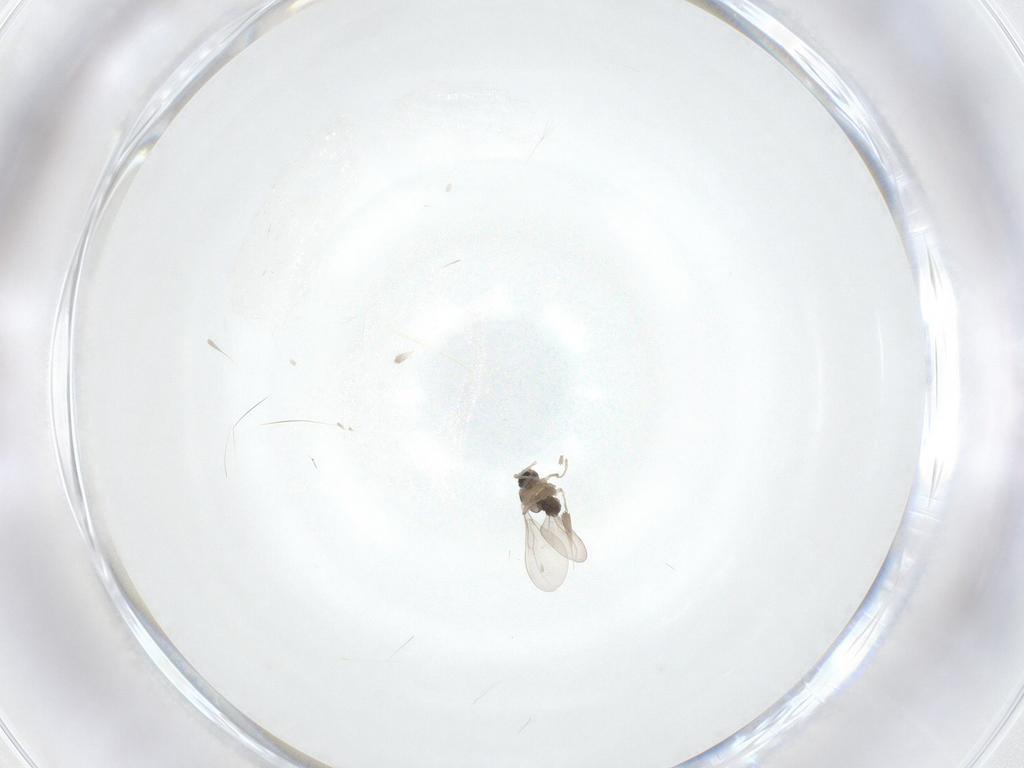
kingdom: Animalia
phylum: Arthropoda
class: Insecta
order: Diptera
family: Cecidomyiidae
